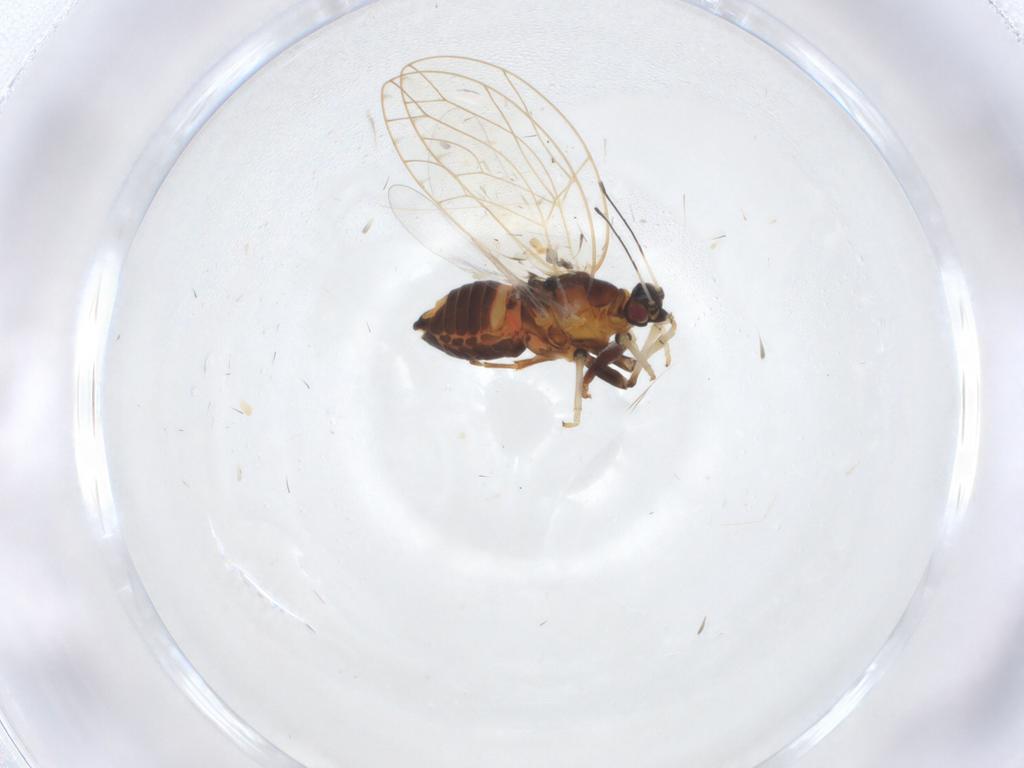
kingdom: Animalia
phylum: Arthropoda
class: Insecta
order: Hemiptera
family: Triozidae
